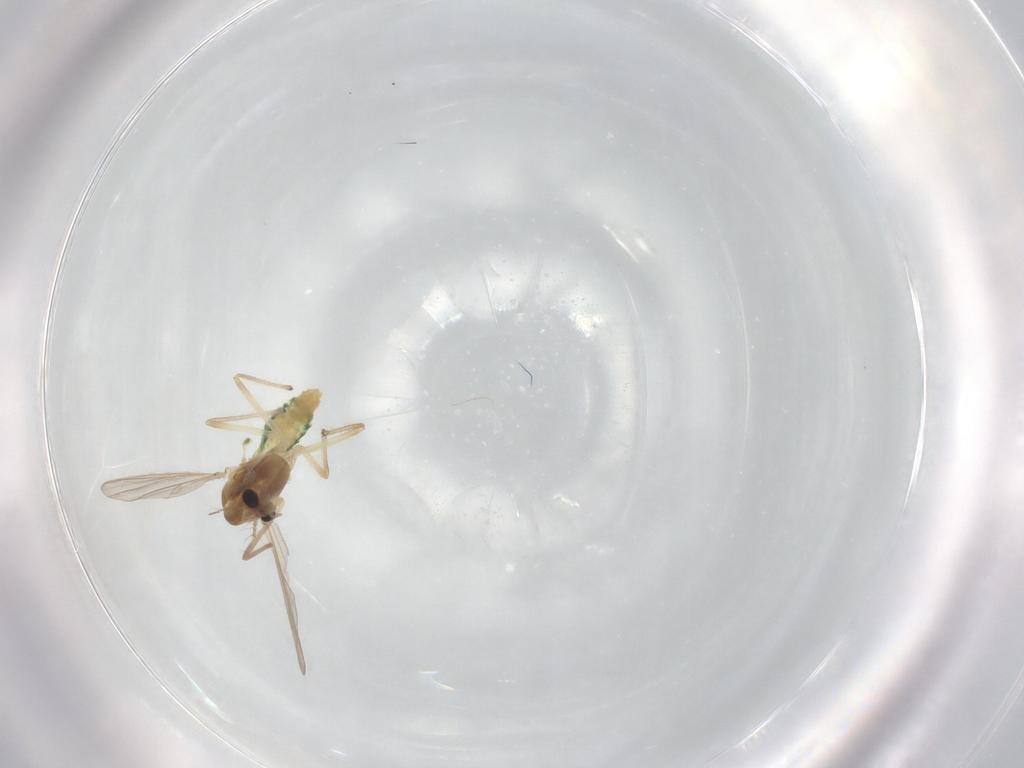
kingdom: Animalia
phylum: Arthropoda
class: Insecta
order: Diptera
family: Chironomidae
